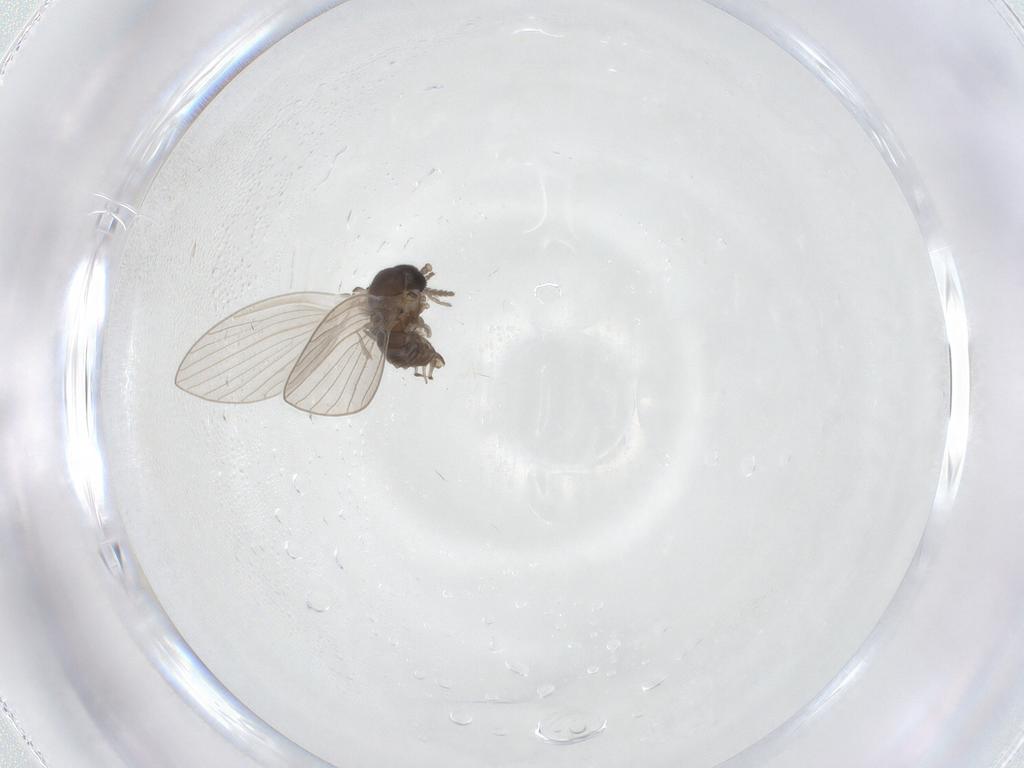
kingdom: Animalia
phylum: Arthropoda
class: Insecta
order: Diptera
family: Psychodidae
